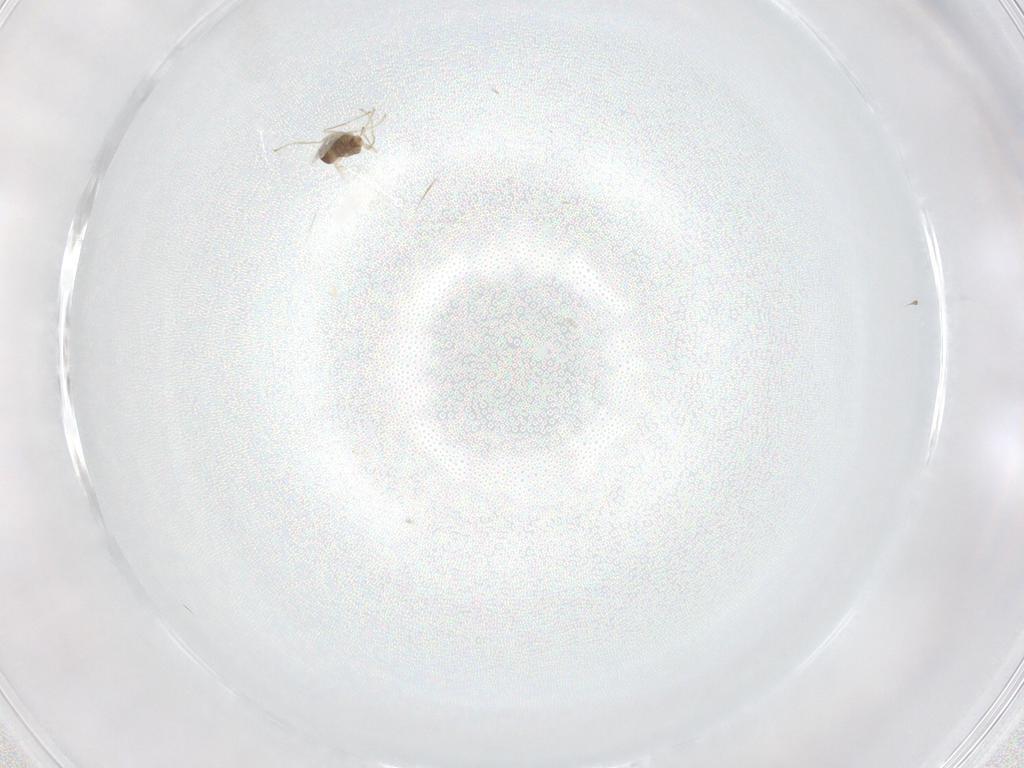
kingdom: Animalia
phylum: Arthropoda
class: Insecta
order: Diptera
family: Cecidomyiidae
